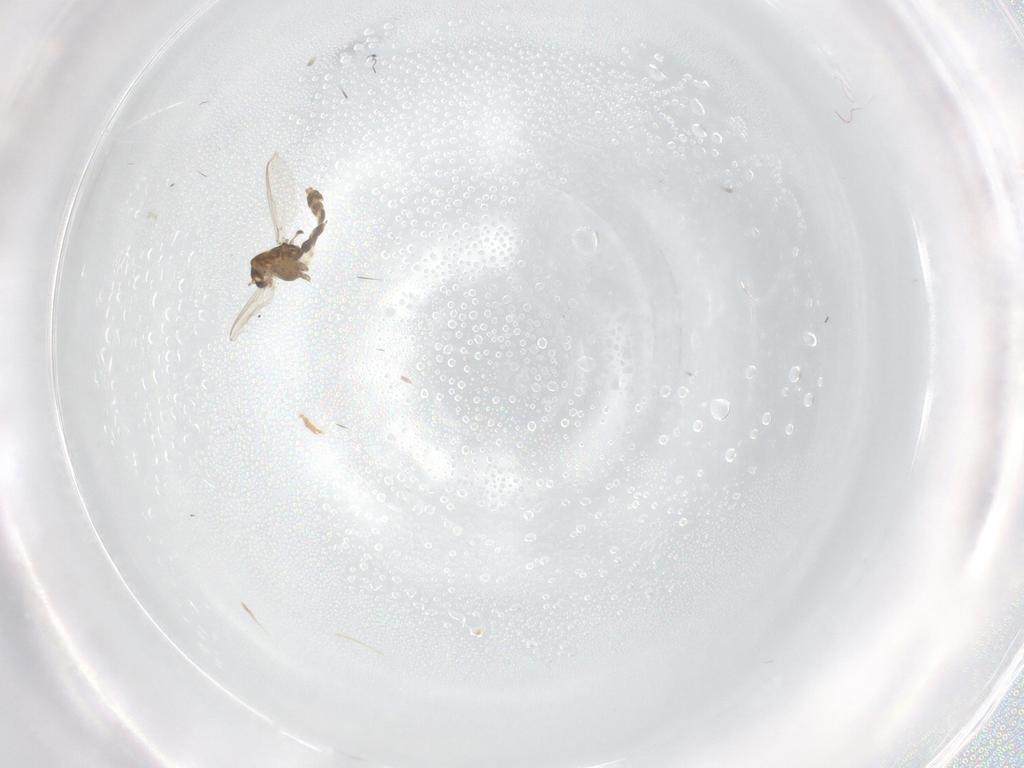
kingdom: Animalia
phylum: Arthropoda
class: Insecta
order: Diptera
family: Chironomidae
